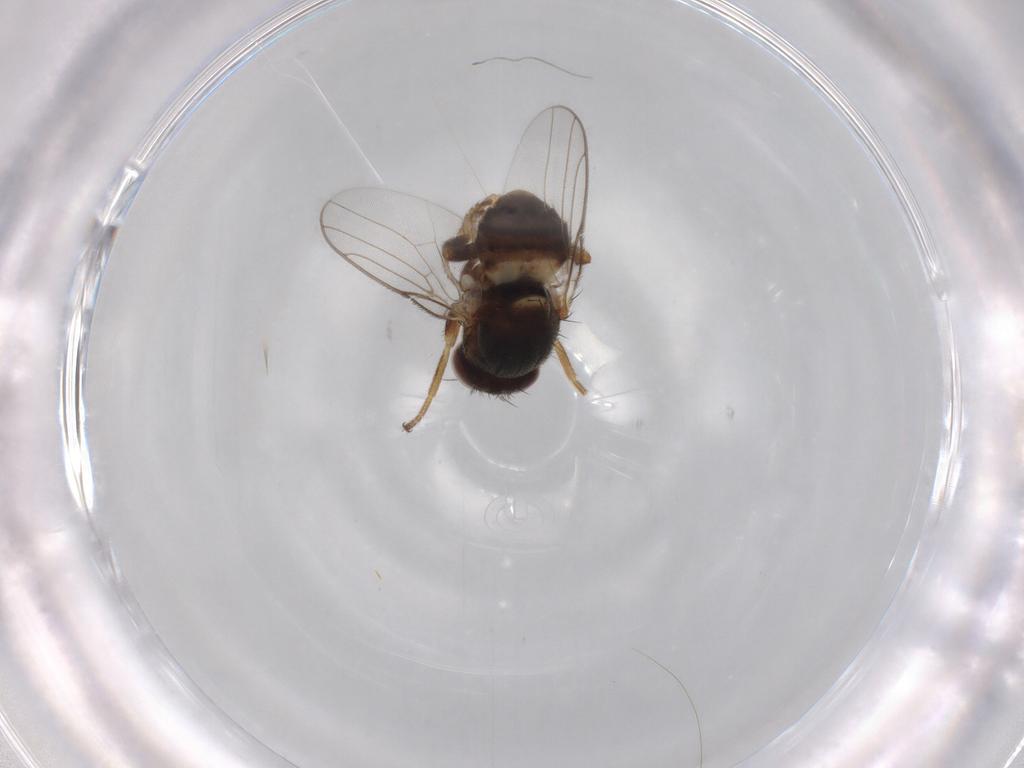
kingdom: Animalia
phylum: Arthropoda
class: Insecta
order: Diptera
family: Chloropidae
